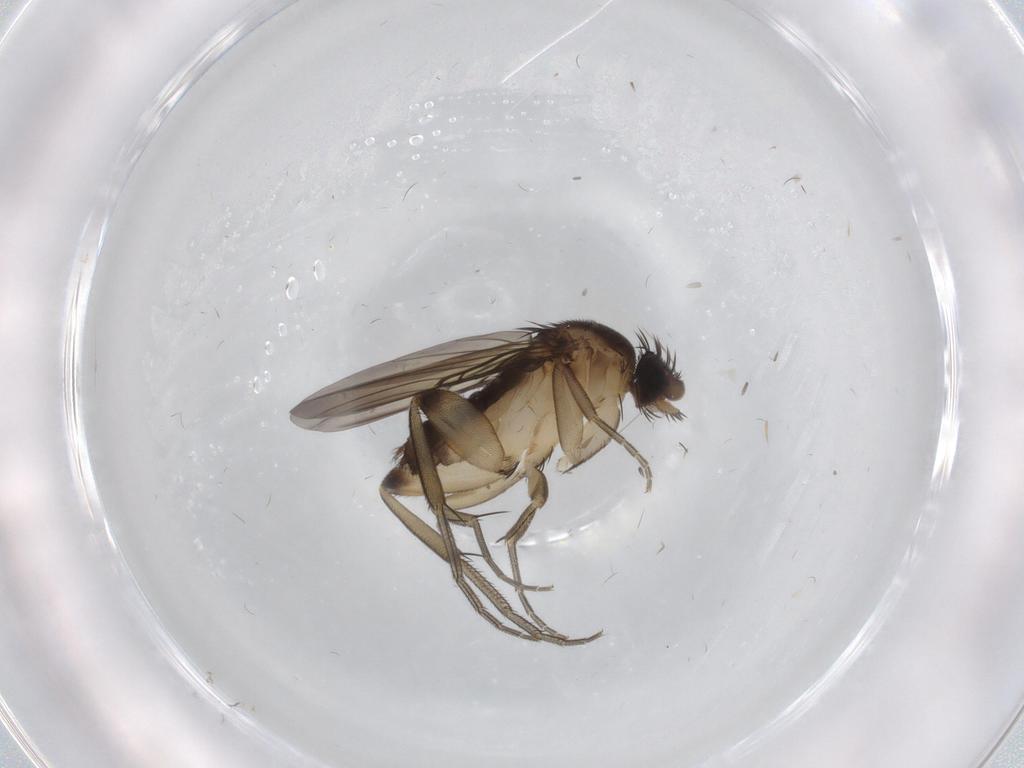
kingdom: Animalia
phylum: Arthropoda
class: Insecta
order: Diptera
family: Phoridae
